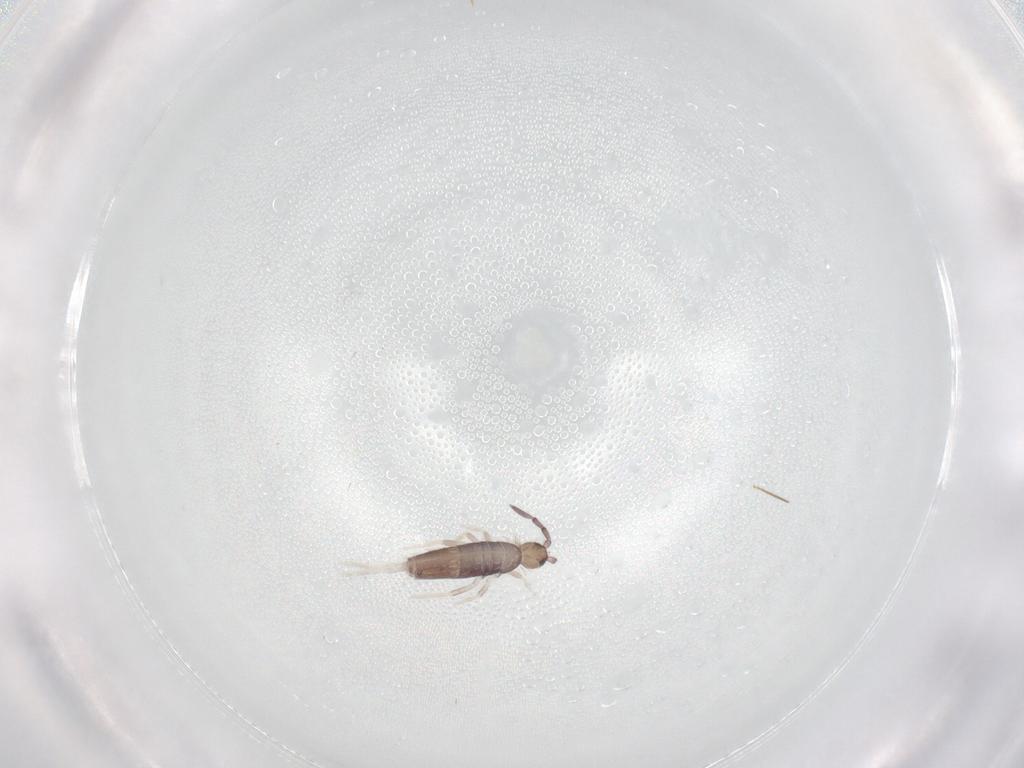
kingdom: Animalia
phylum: Arthropoda
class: Collembola
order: Entomobryomorpha
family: Entomobryidae
